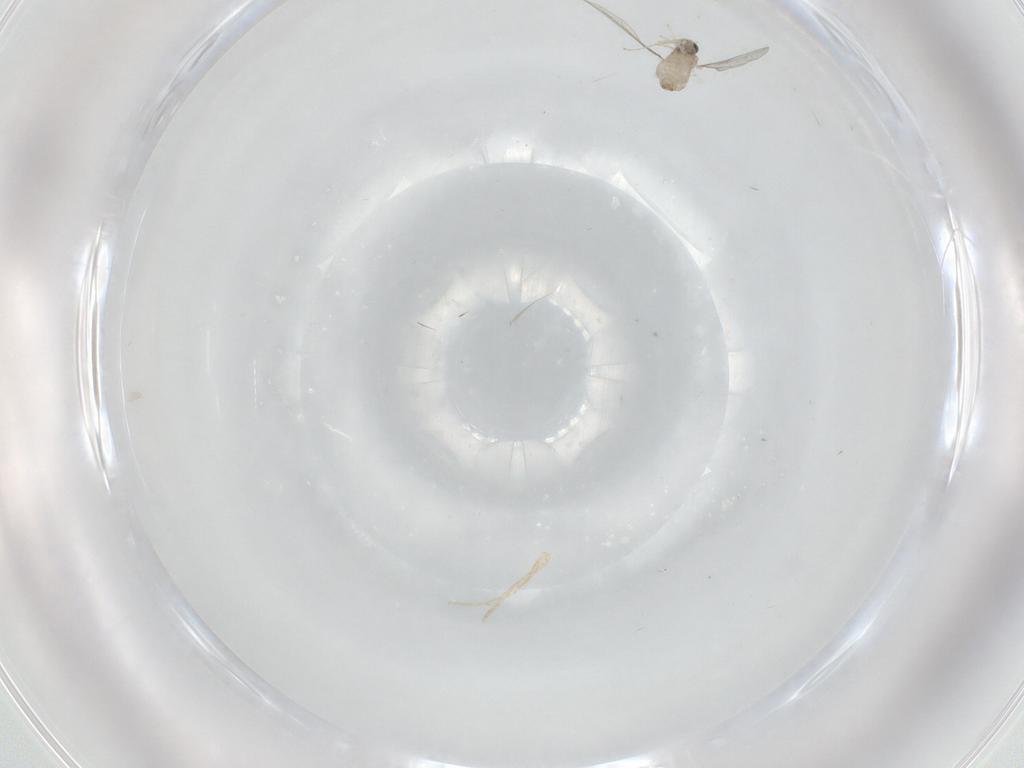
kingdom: Animalia
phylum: Arthropoda
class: Insecta
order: Diptera
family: Cecidomyiidae
